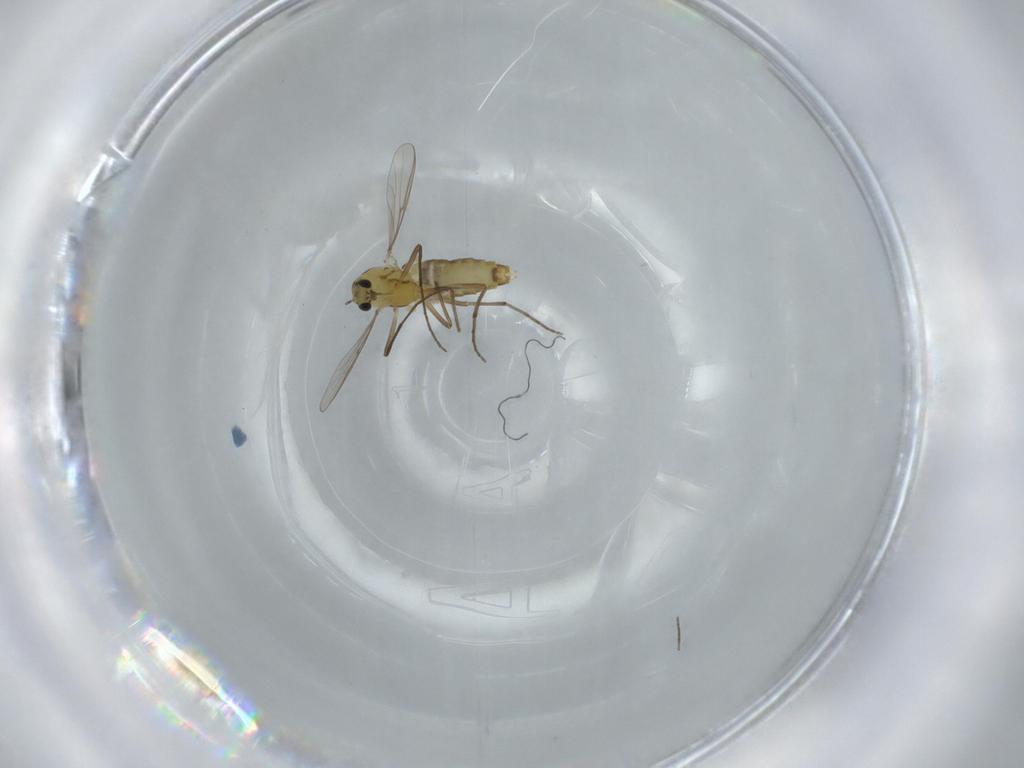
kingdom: Animalia
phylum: Arthropoda
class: Insecta
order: Diptera
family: Chironomidae
